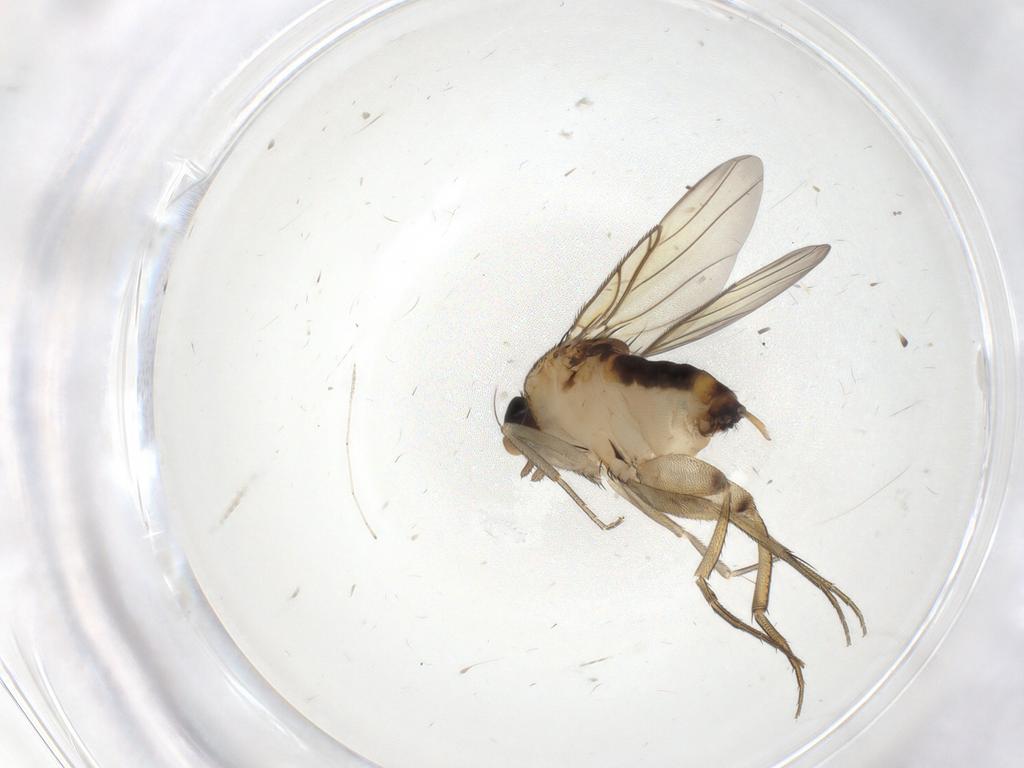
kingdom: Animalia
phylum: Arthropoda
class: Insecta
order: Diptera
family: Phoridae
